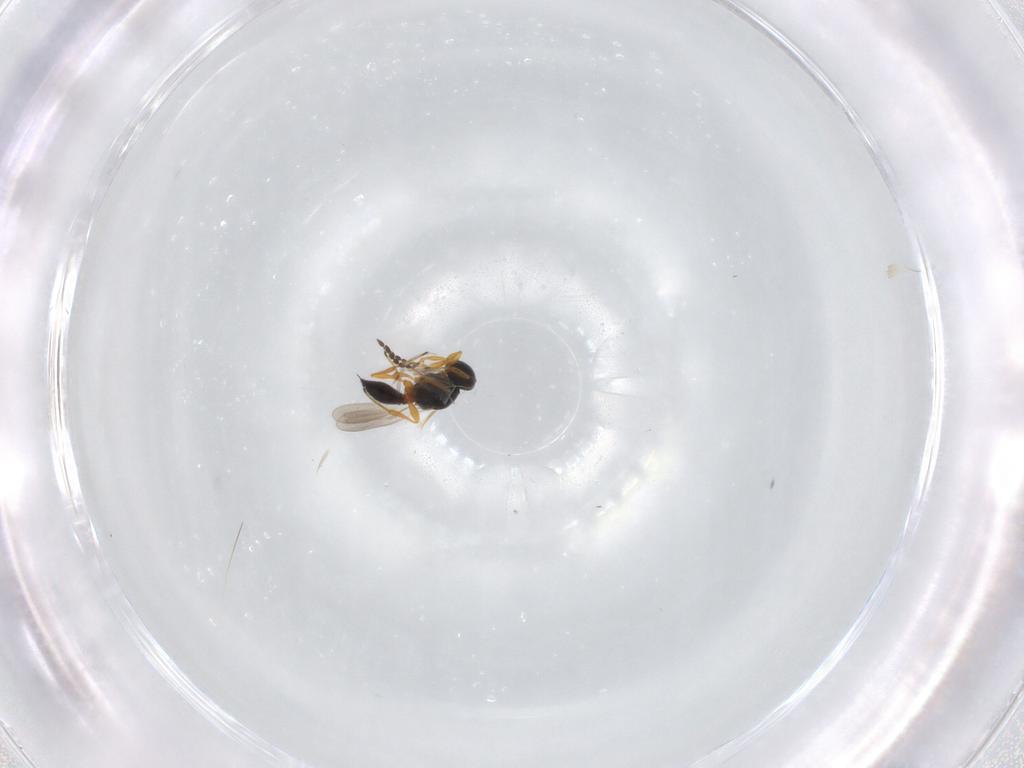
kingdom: Animalia
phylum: Arthropoda
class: Insecta
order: Hymenoptera
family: Platygastridae
